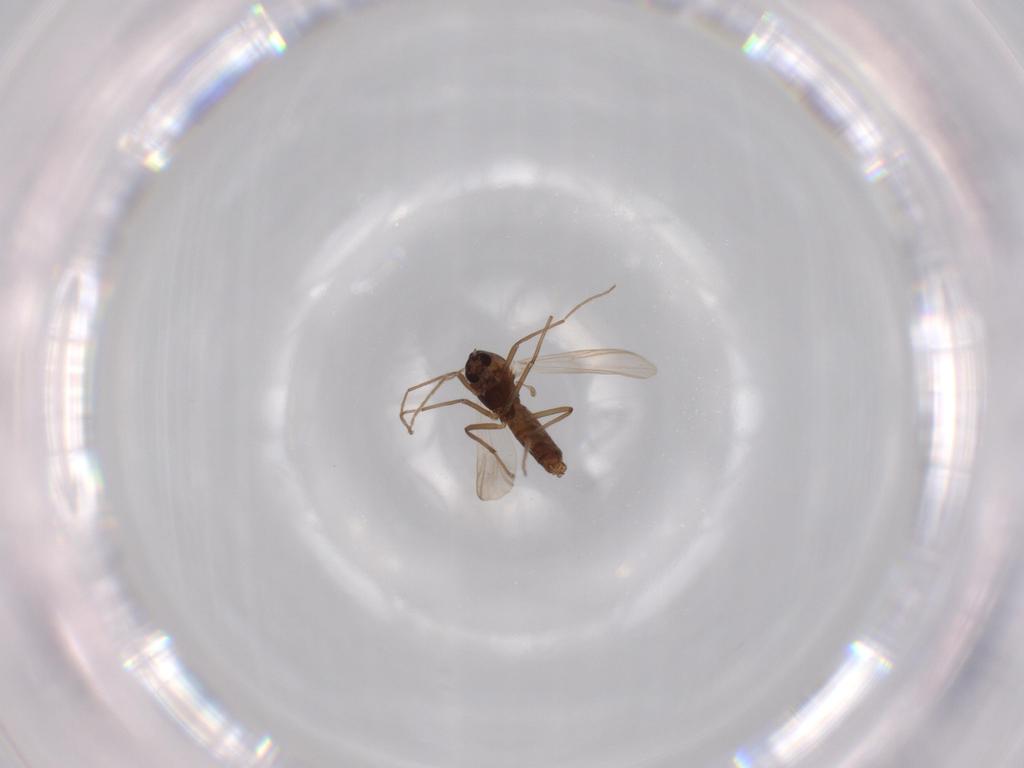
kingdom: Animalia
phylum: Arthropoda
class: Insecta
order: Diptera
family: Chironomidae
